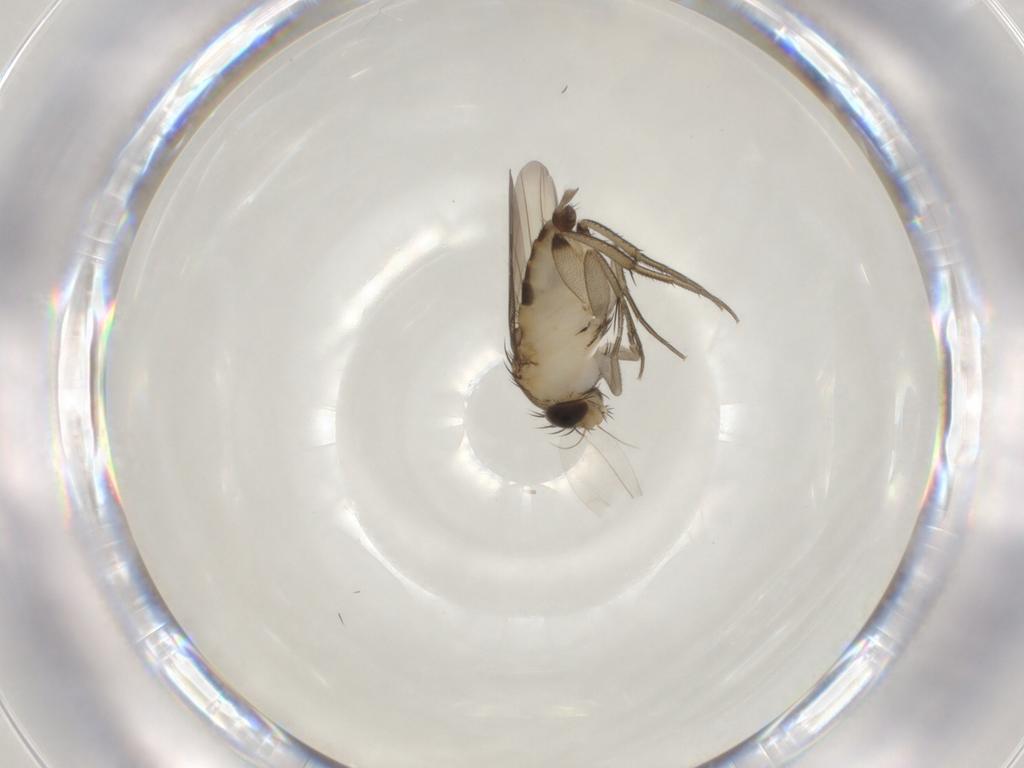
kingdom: Animalia
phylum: Arthropoda
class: Insecta
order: Diptera
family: Phoridae
